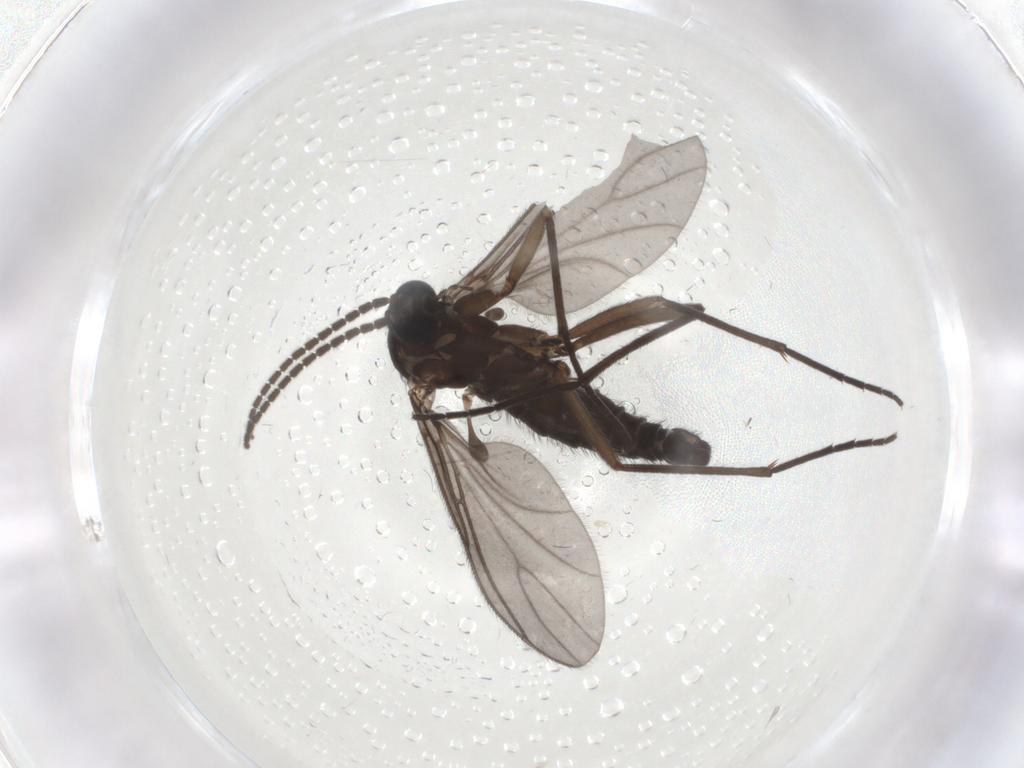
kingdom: Animalia
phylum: Arthropoda
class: Insecta
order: Diptera
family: Sciaridae
